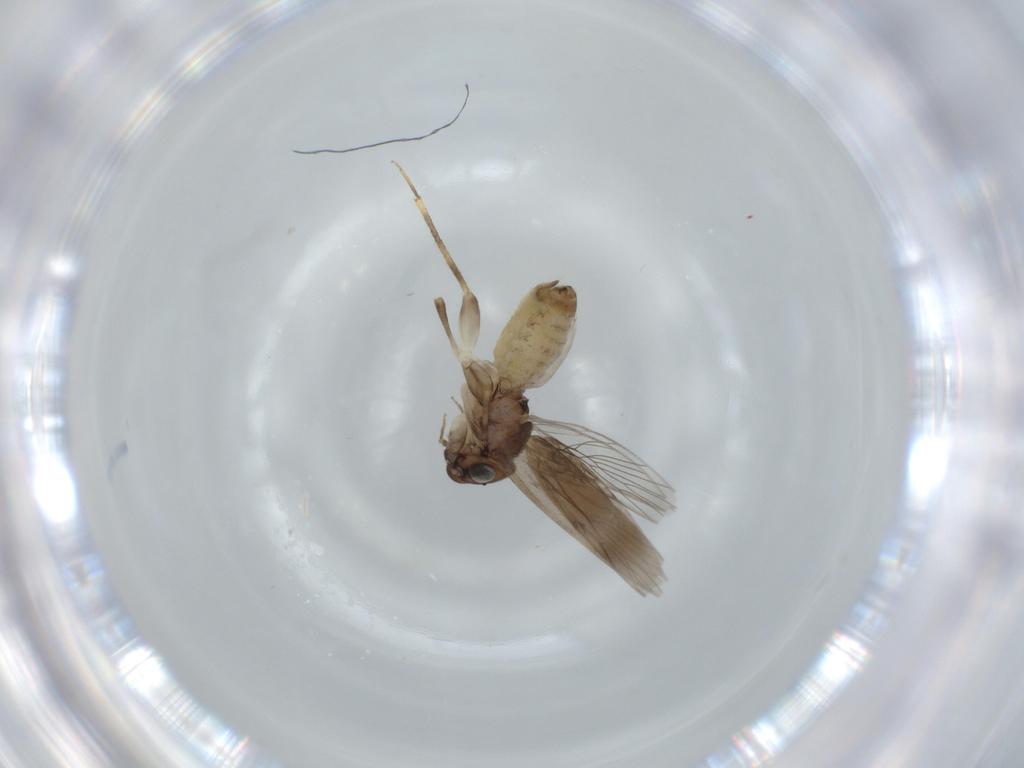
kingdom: Animalia
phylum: Arthropoda
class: Insecta
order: Psocodea
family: Lepidopsocidae
